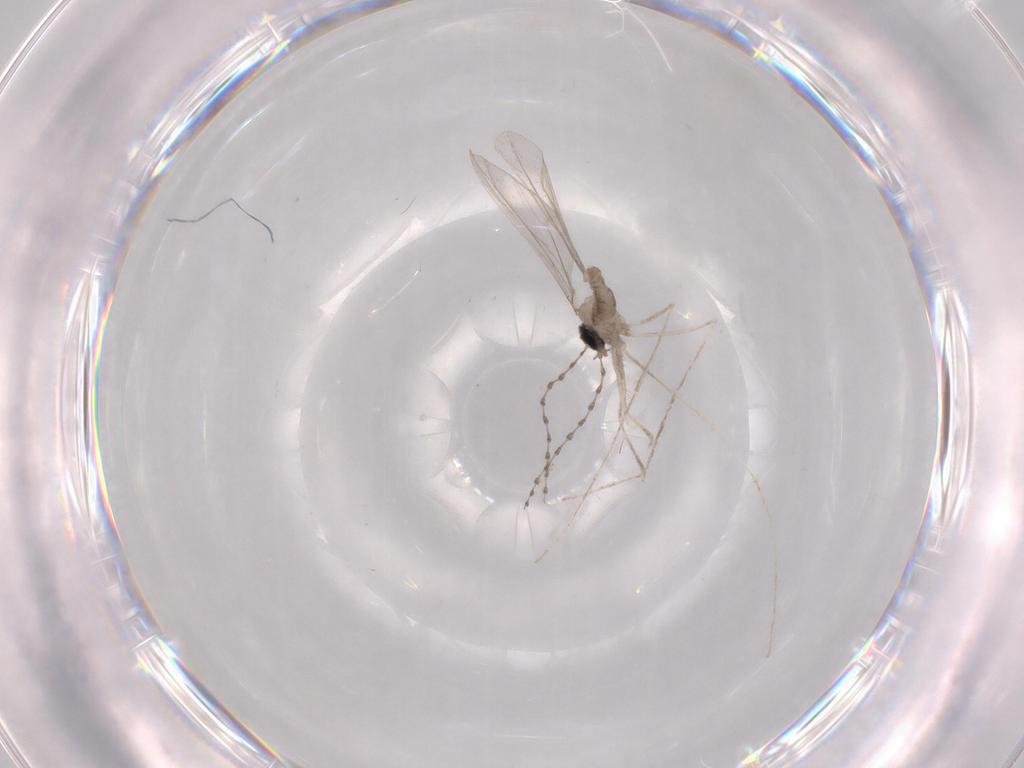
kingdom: Animalia
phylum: Arthropoda
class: Insecta
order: Diptera
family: Cecidomyiidae
